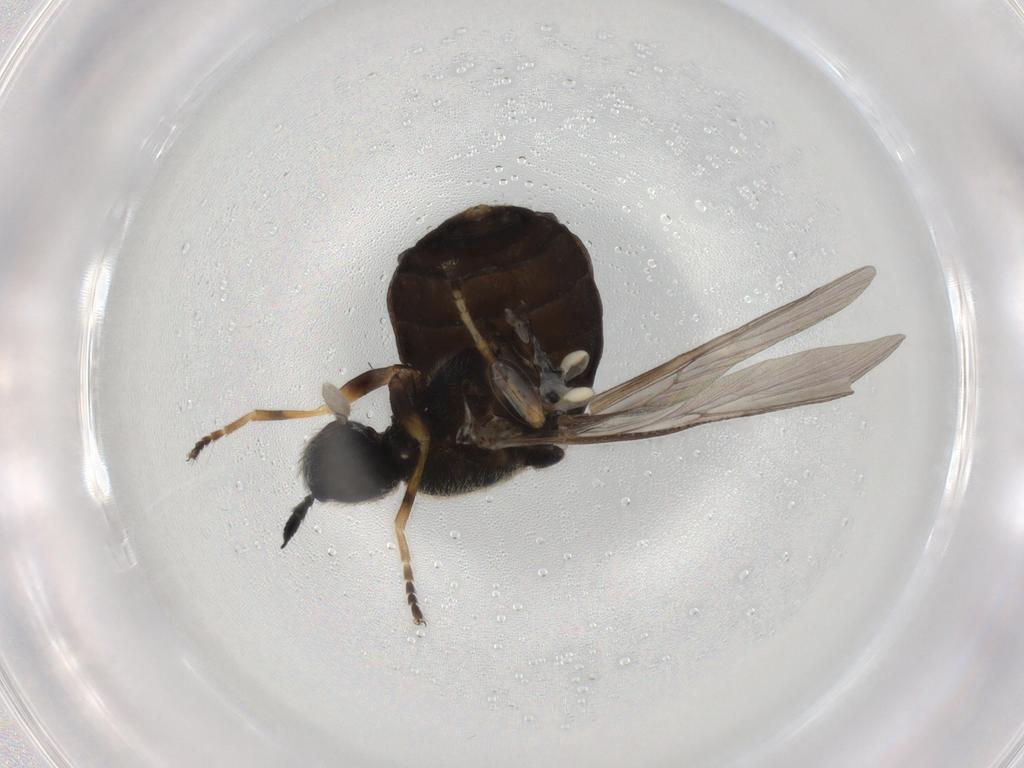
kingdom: Animalia
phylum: Arthropoda
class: Insecta
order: Diptera
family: Stratiomyidae
